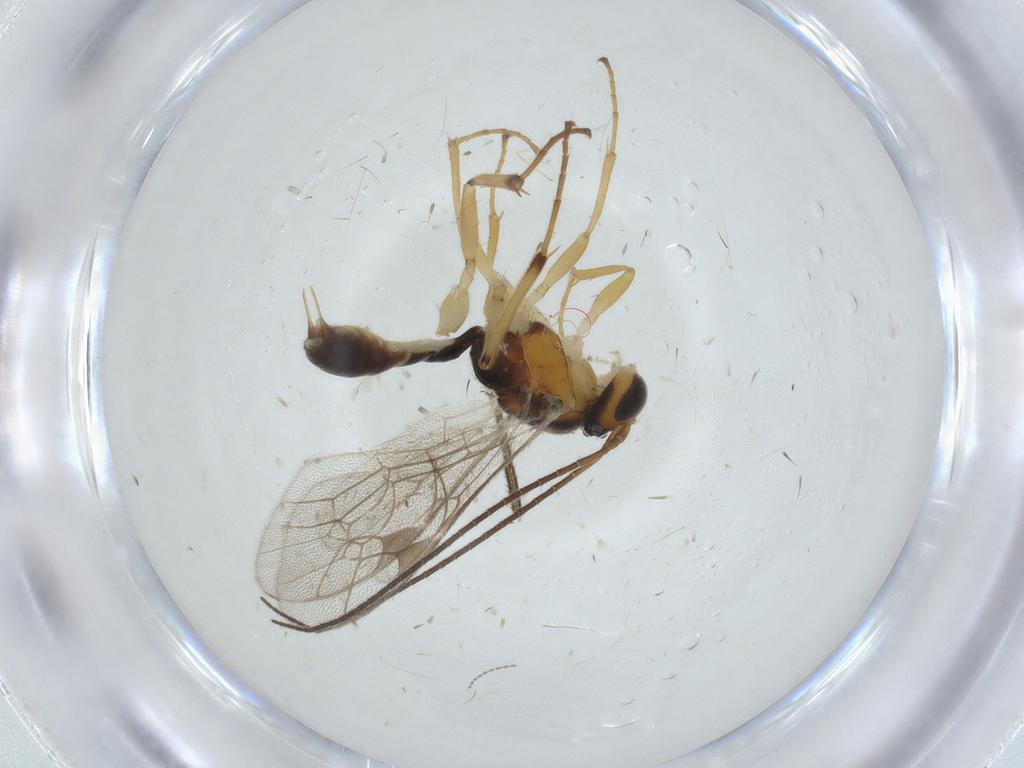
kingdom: Animalia
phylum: Arthropoda
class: Insecta
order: Hymenoptera
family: Ichneumonidae
